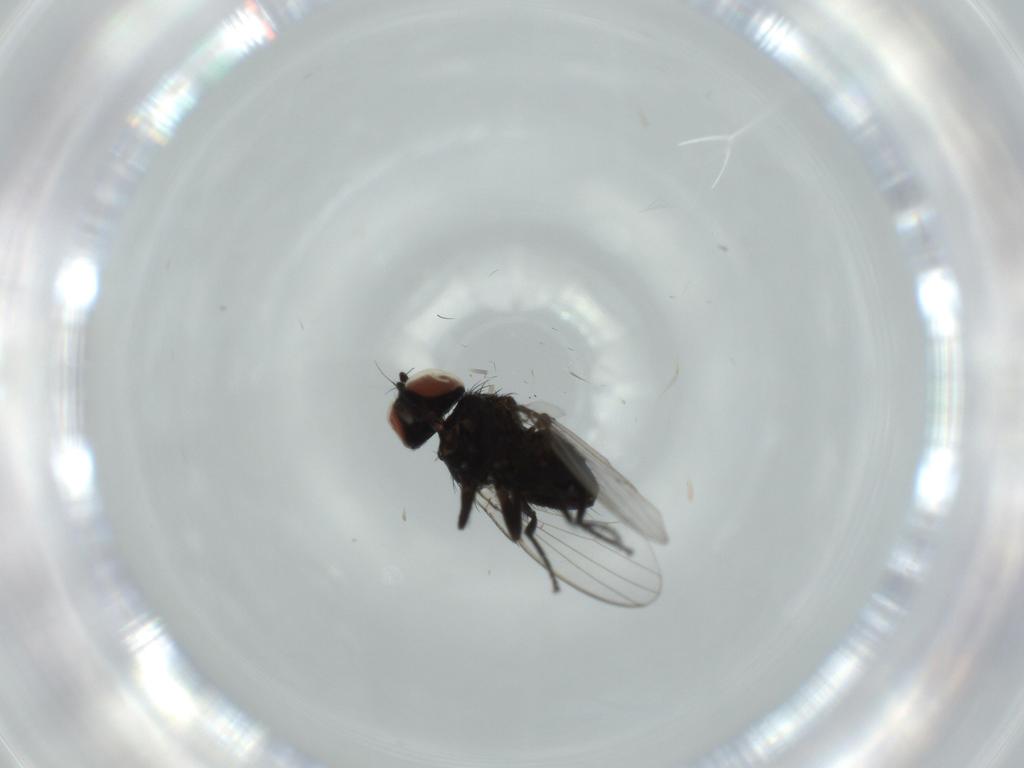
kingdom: Animalia
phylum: Arthropoda
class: Insecta
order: Diptera
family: Milichiidae
